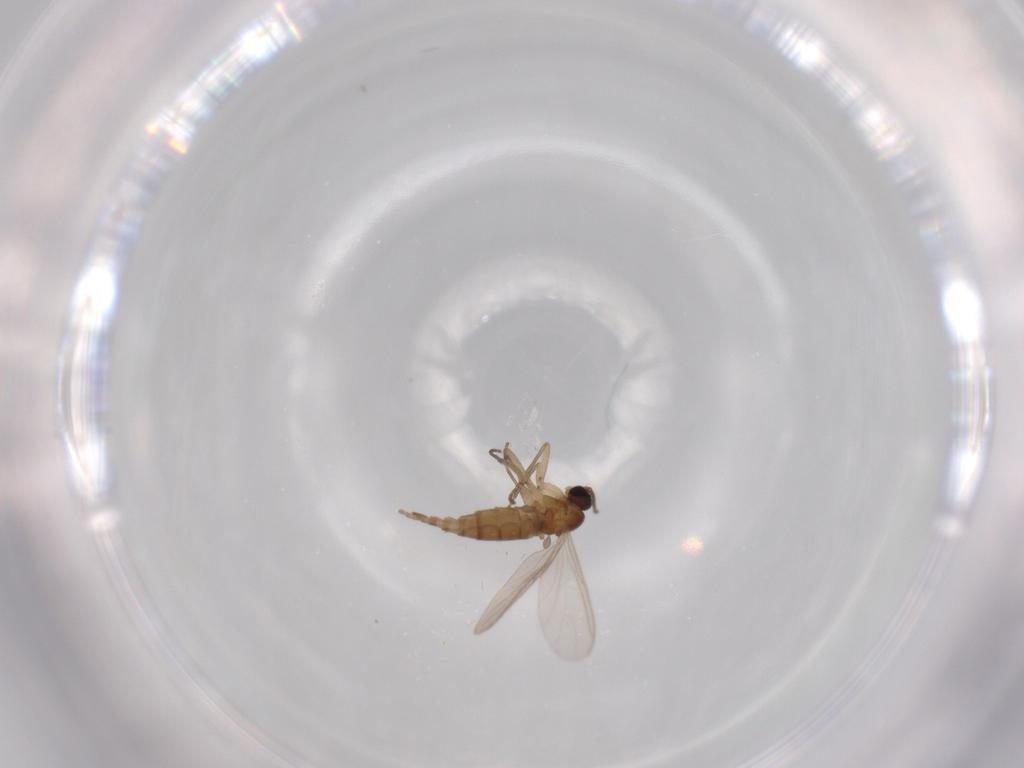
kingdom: Animalia
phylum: Arthropoda
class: Insecta
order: Diptera
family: Sciaridae
